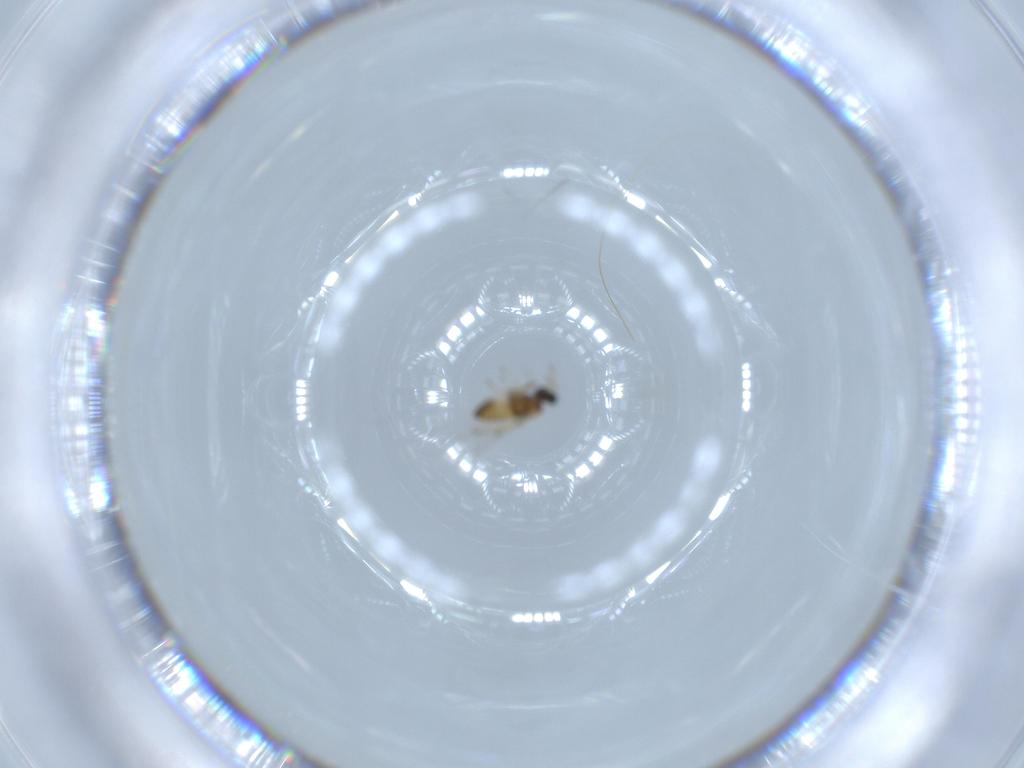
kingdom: Animalia
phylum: Arthropoda
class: Insecta
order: Hymenoptera
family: Trichogrammatidae
